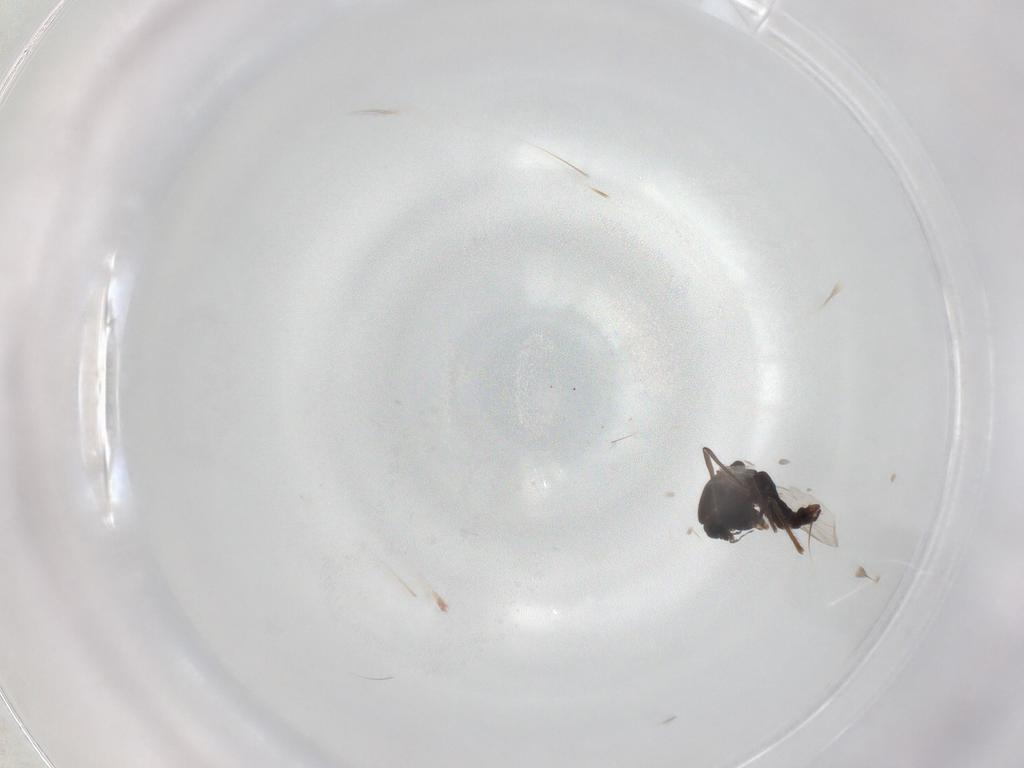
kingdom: Animalia
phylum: Arthropoda
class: Insecta
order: Diptera
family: Chironomidae
